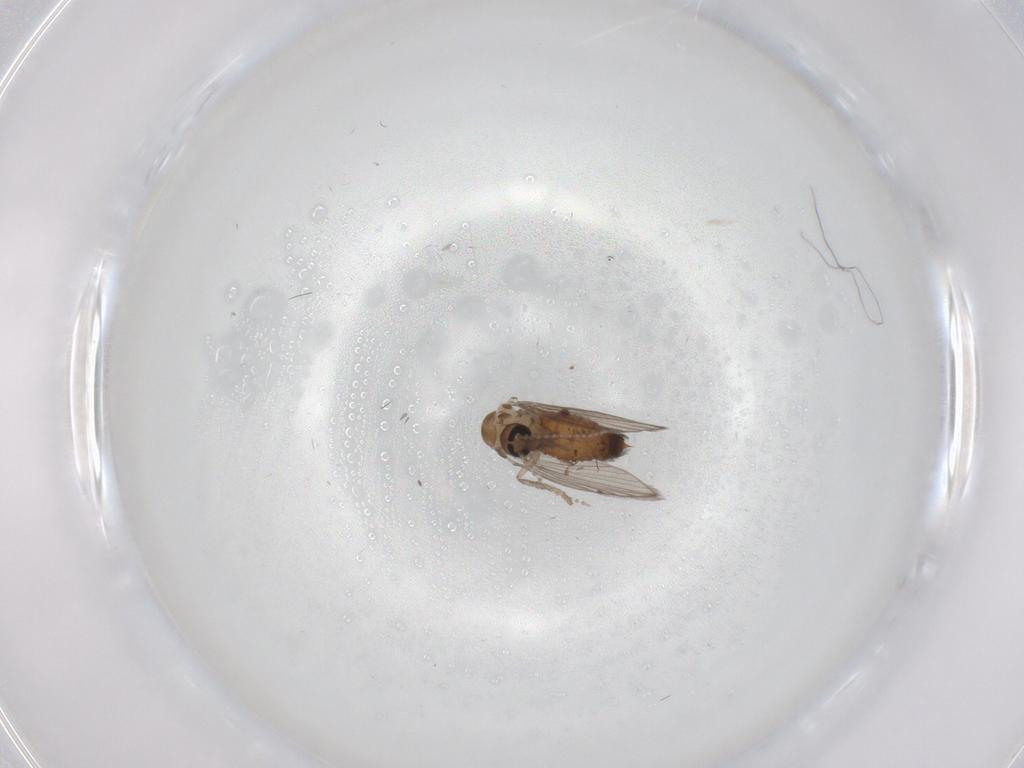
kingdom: Animalia
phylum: Arthropoda
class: Insecta
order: Diptera
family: Psychodidae
